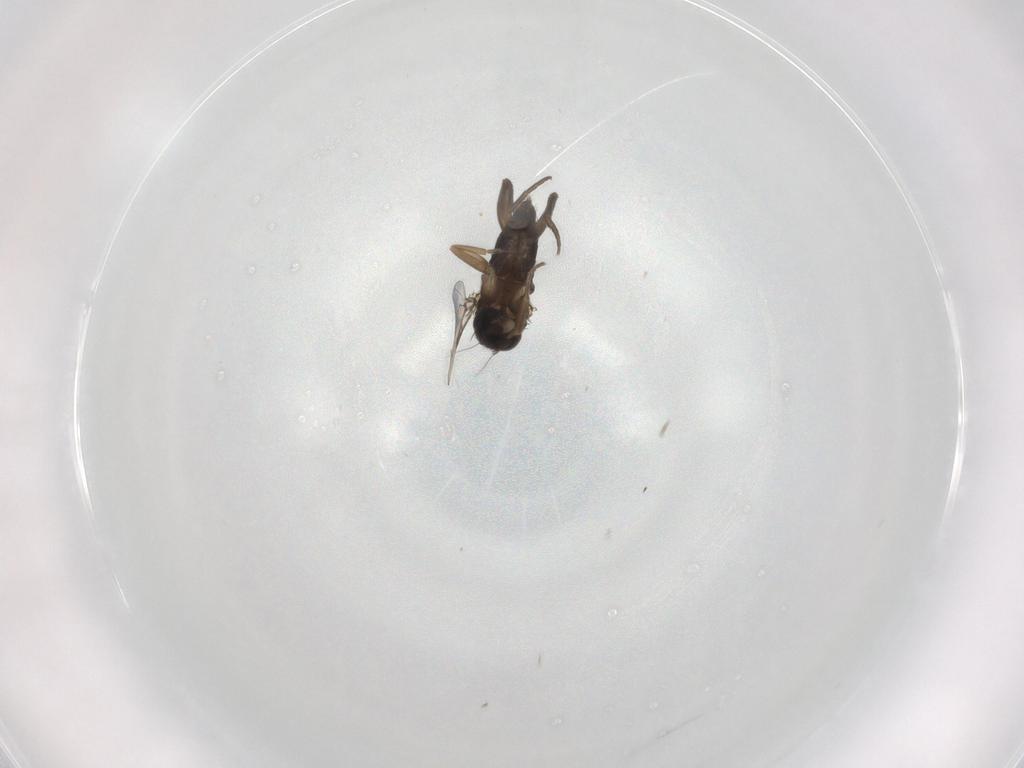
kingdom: Animalia
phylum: Arthropoda
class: Insecta
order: Diptera
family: Phoridae
